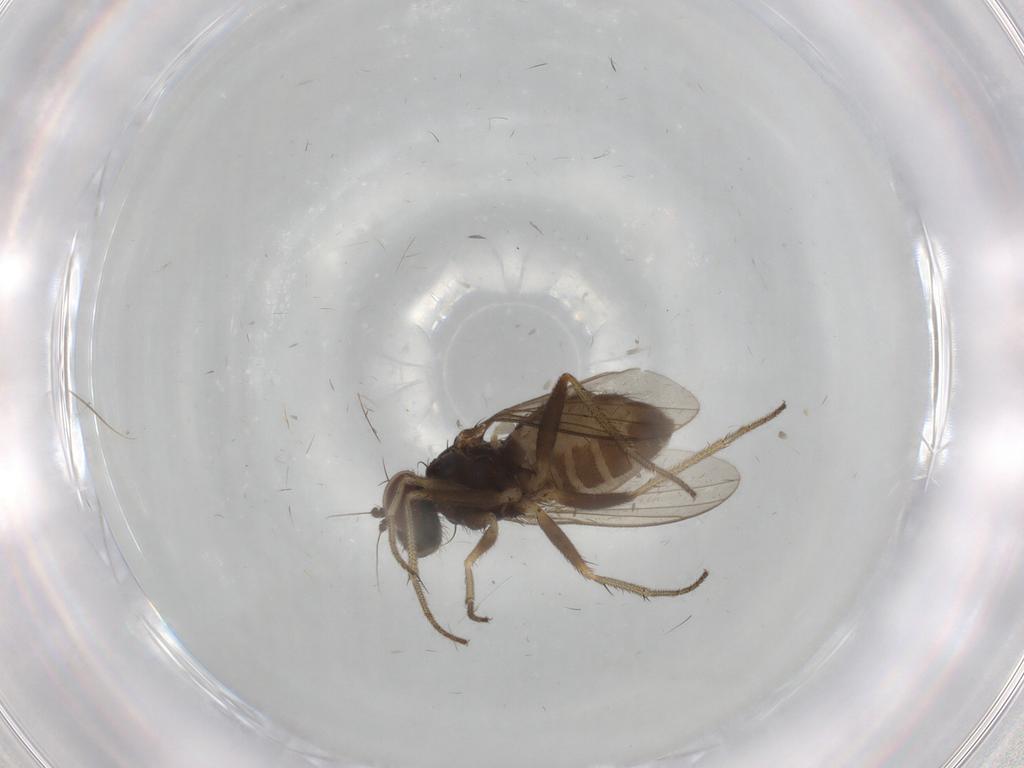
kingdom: Animalia
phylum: Arthropoda
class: Insecta
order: Diptera
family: Dolichopodidae
